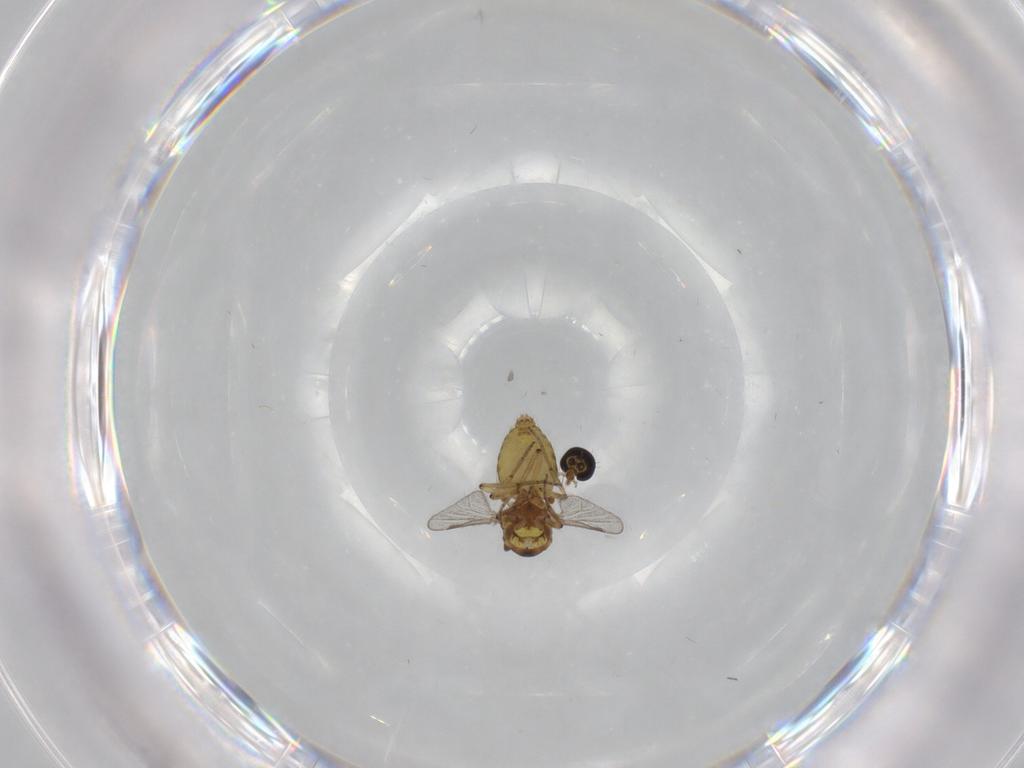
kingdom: Animalia
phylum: Arthropoda
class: Insecta
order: Diptera
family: Ceratopogonidae
